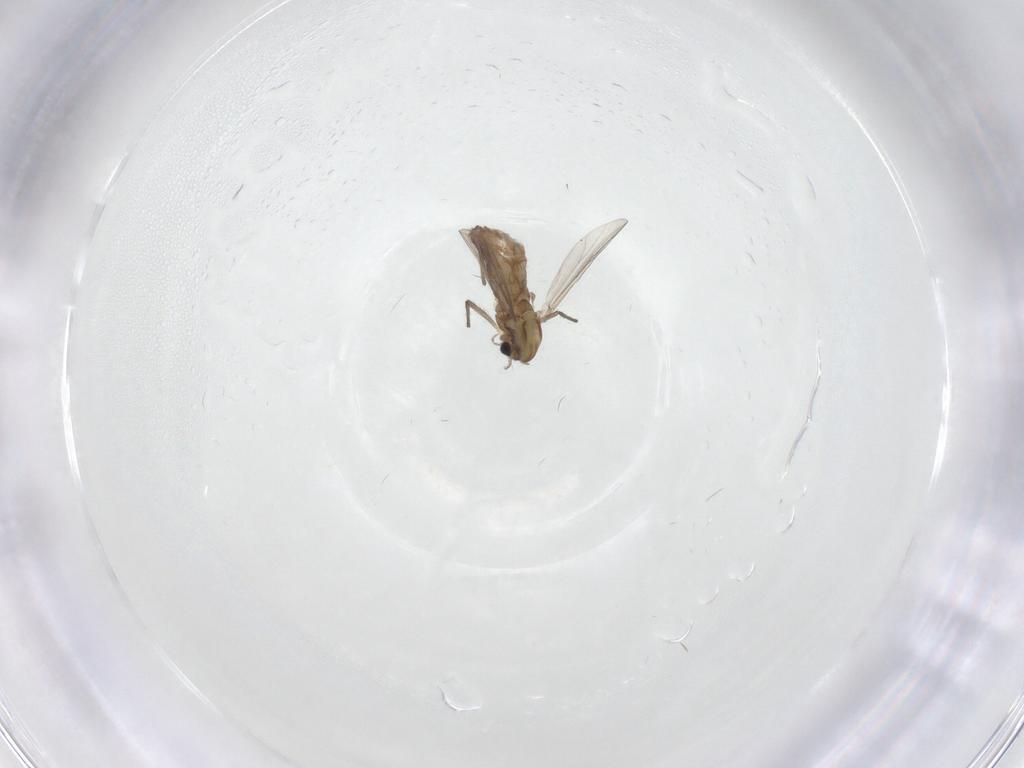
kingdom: Animalia
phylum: Arthropoda
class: Insecta
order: Diptera
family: Chironomidae
